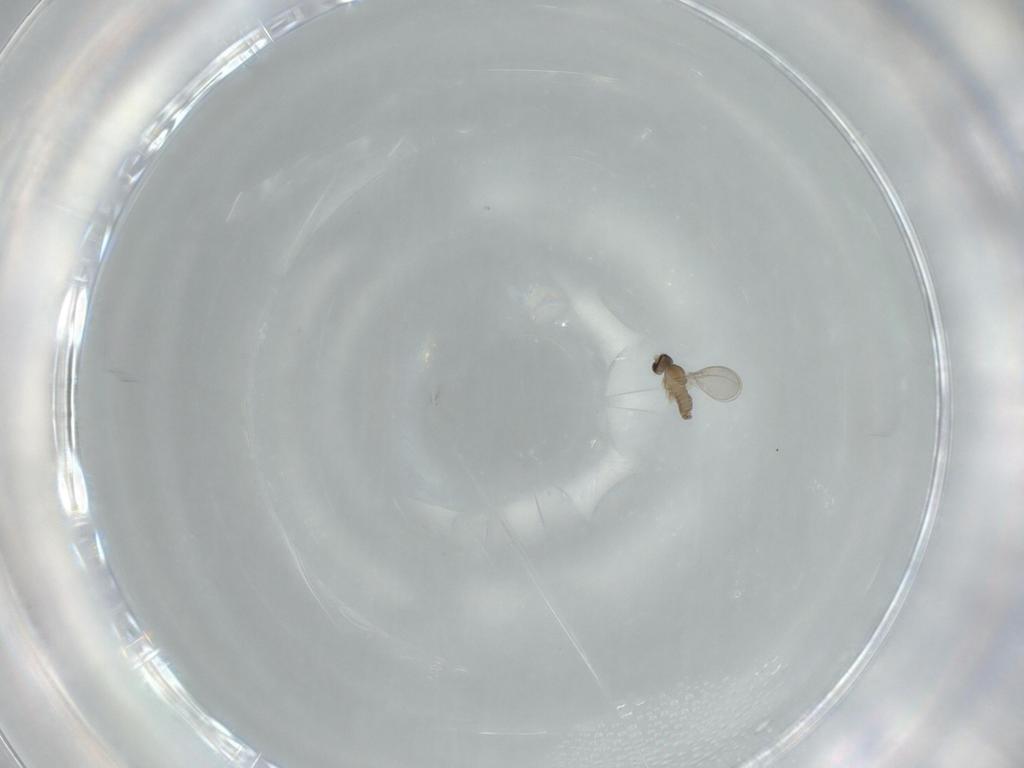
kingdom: Animalia
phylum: Arthropoda
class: Insecta
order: Diptera
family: Cecidomyiidae
